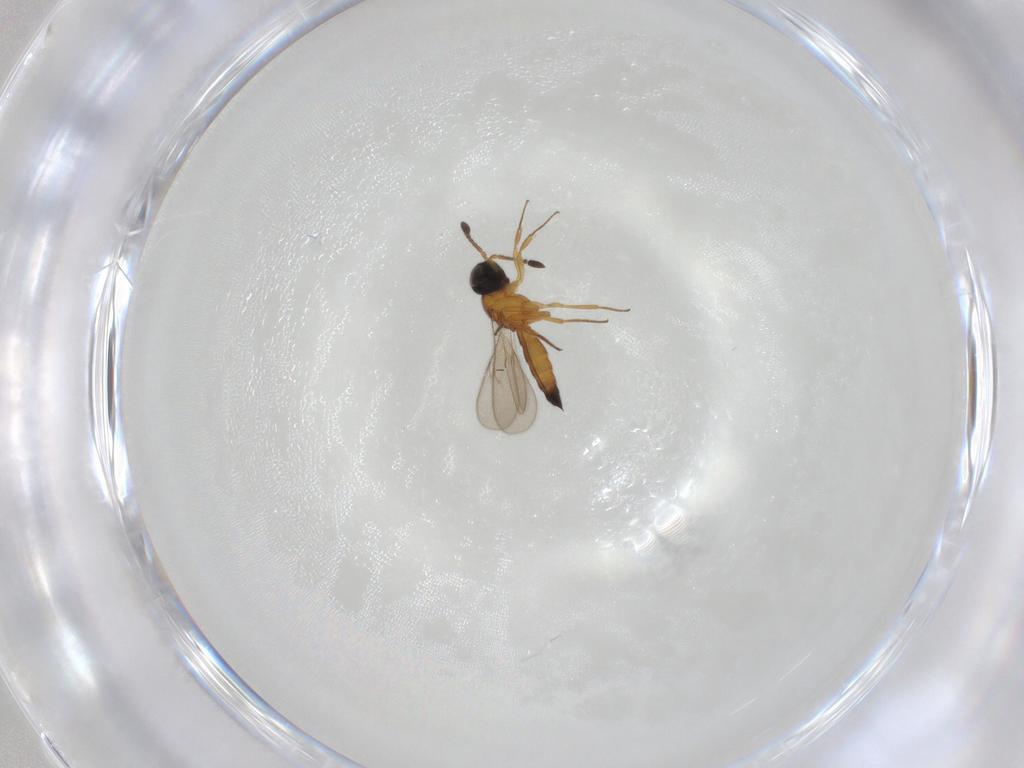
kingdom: Animalia
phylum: Arthropoda
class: Insecta
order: Hymenoptera
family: Scelionidae
